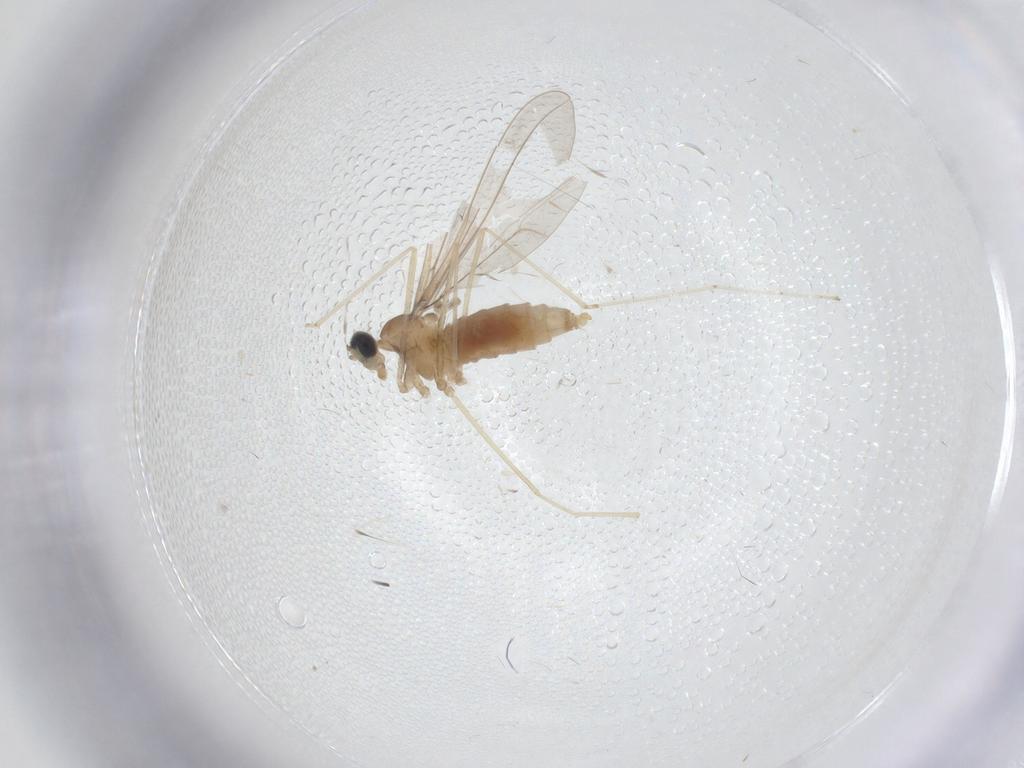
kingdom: Animalia
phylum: Arthropoda
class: Insecta
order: Diptera
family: Cecidomyiidae
